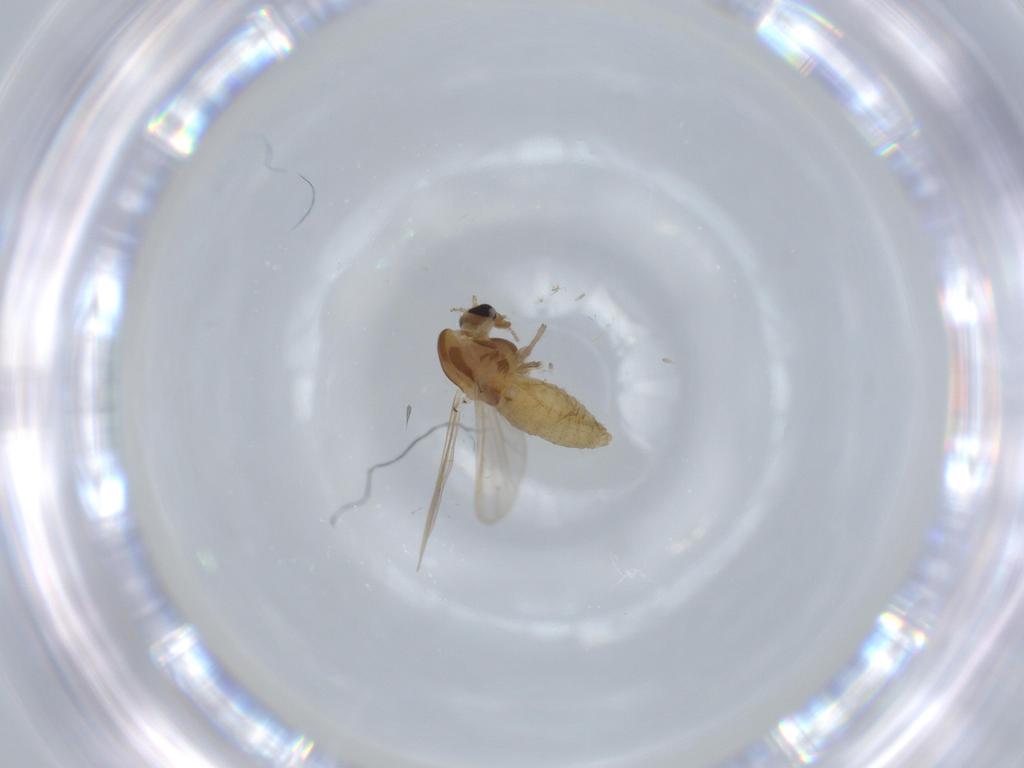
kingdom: Animalia
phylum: Arthropoda
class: Insecta
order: Diptera
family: Chironomidae
